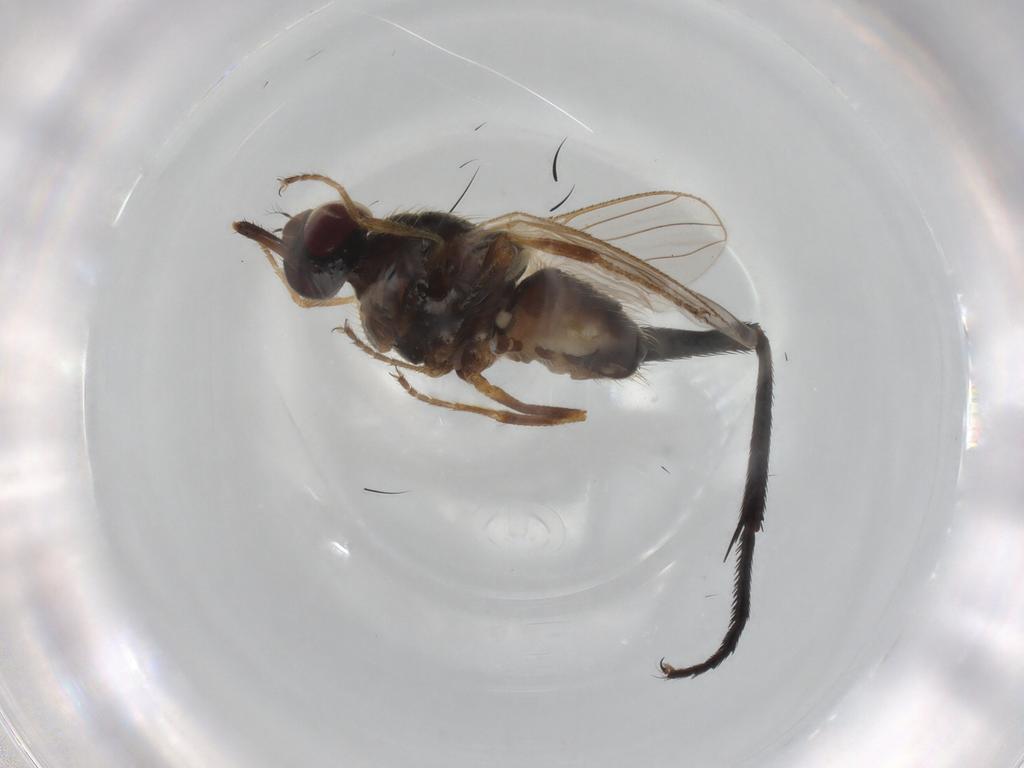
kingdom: Animalia
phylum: Arthropoda
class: Insecta
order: Diptera
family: Muscidae
